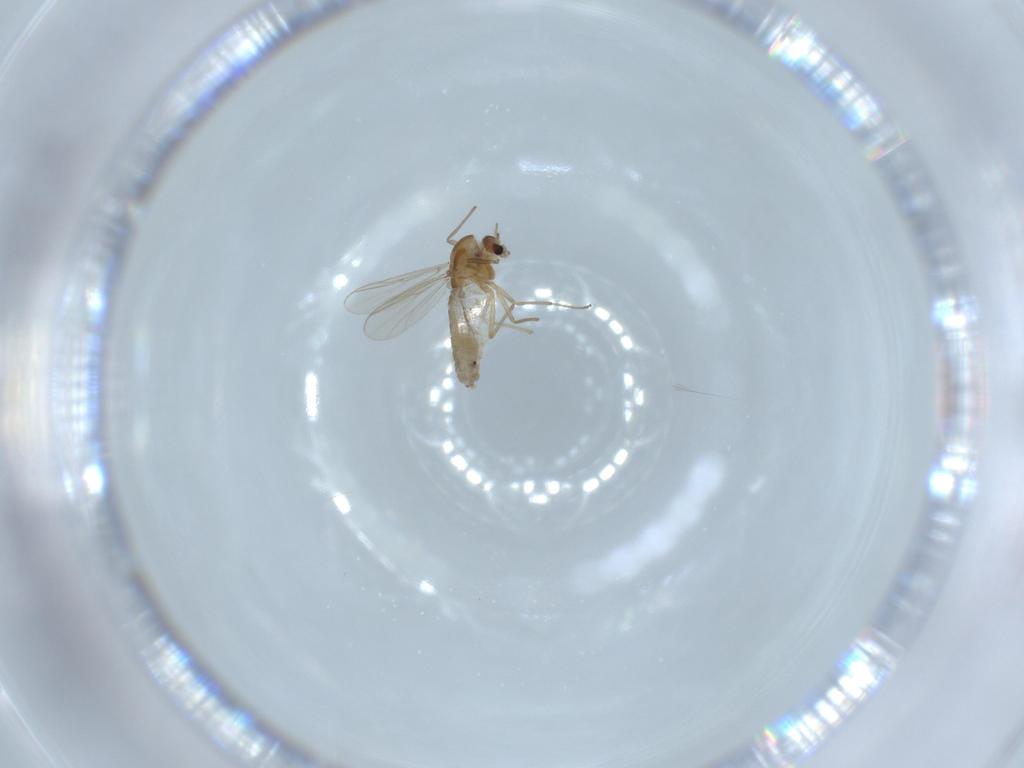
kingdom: Animalia
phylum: Arthropoda
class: Insecta
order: Diptera
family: Chironomidae
